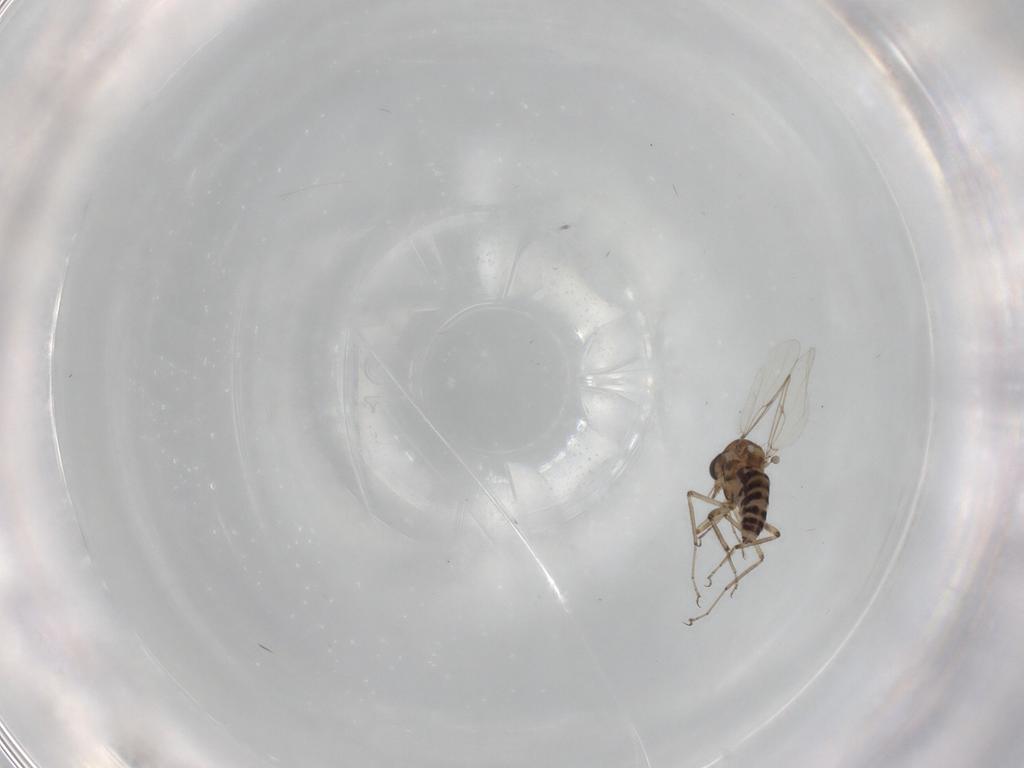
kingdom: Animalia
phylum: Arthropoda
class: Insecta
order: Diptera
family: Ceratopogonidae
